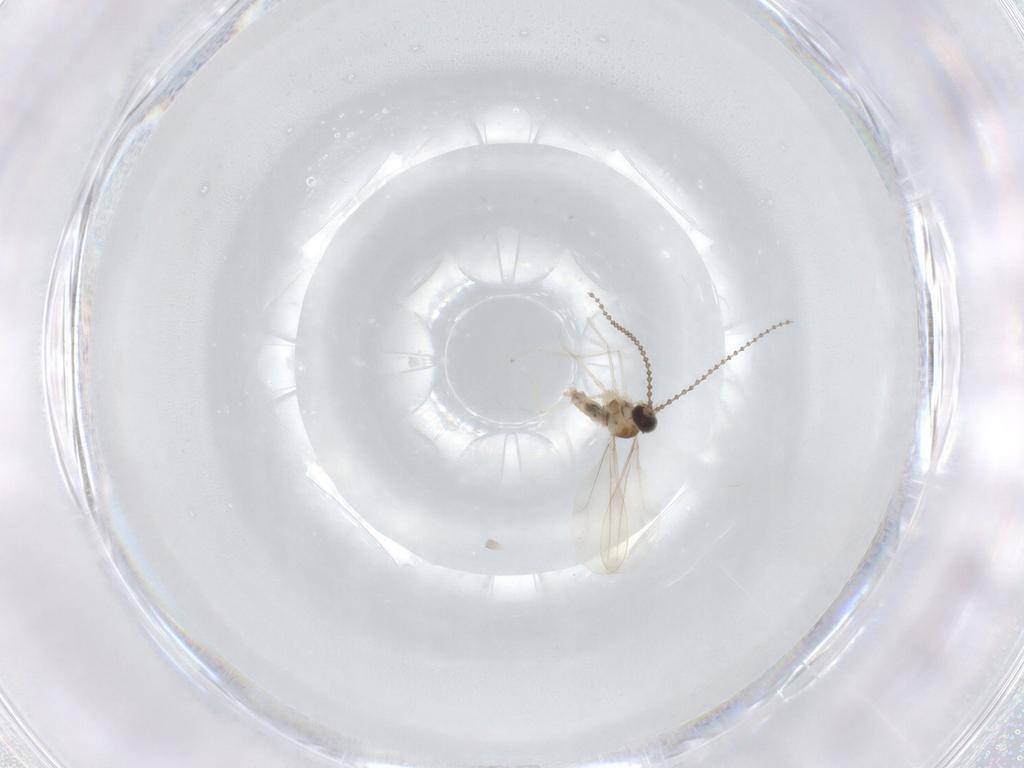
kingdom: Animalia
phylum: Arthropoda
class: Insecta
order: Diptera
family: Cecidomyiidae
